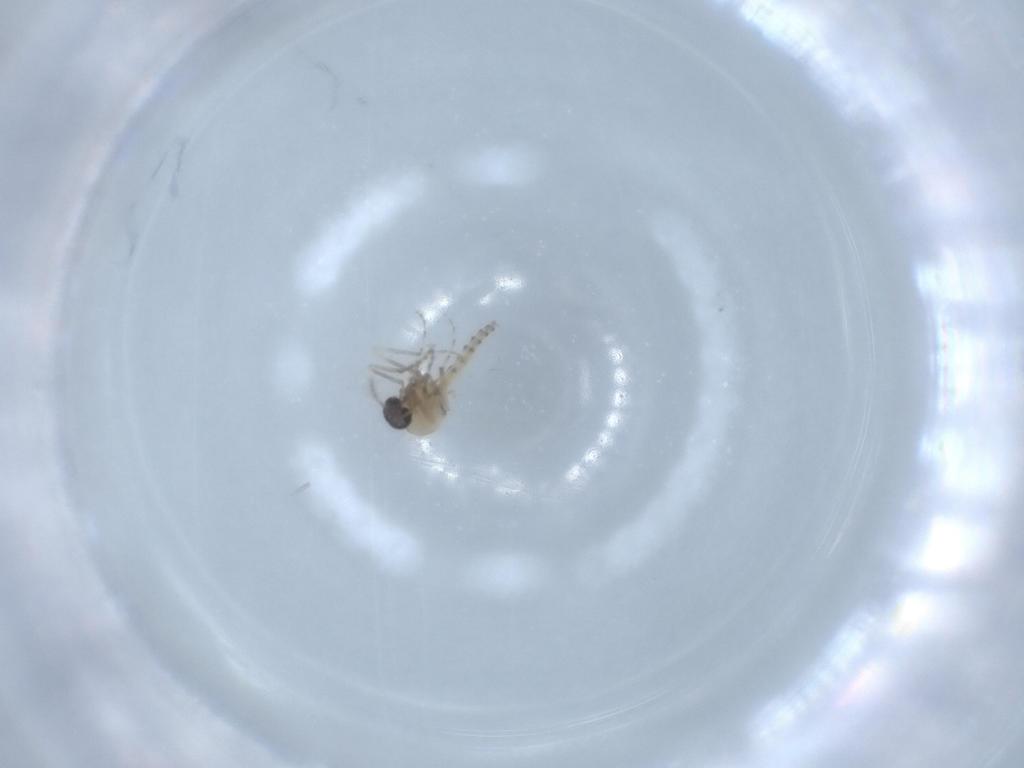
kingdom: Animalia
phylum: Arthropoda
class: Insecta
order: Diptera
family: Ceratopogonidae
